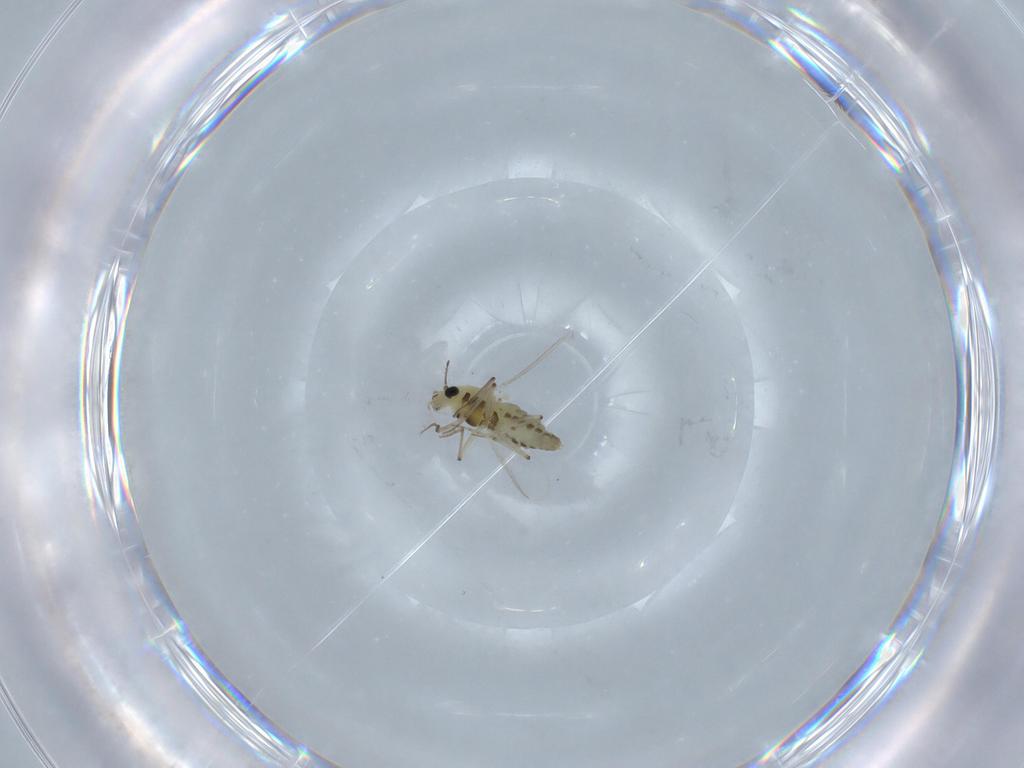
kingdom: Animalia
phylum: Arthropoda
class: Insecta
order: Diptera
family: Chironomidae
